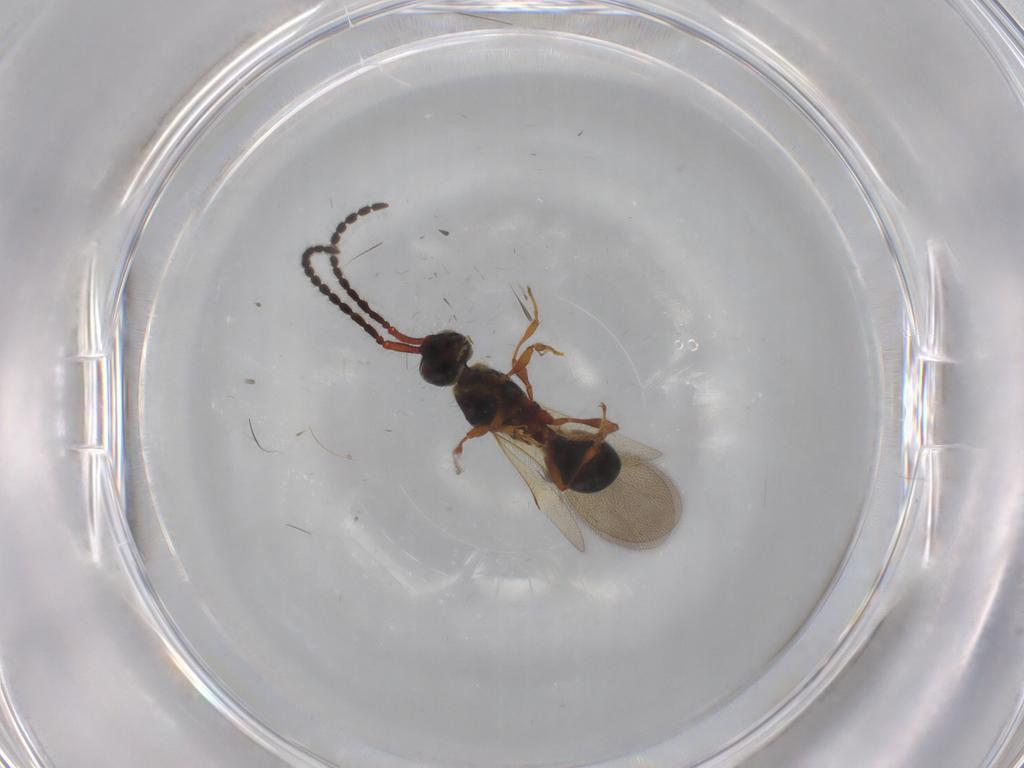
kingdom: Animalia
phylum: Arthropoda
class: Insecta
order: Hymenoptera
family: Diapriidae
